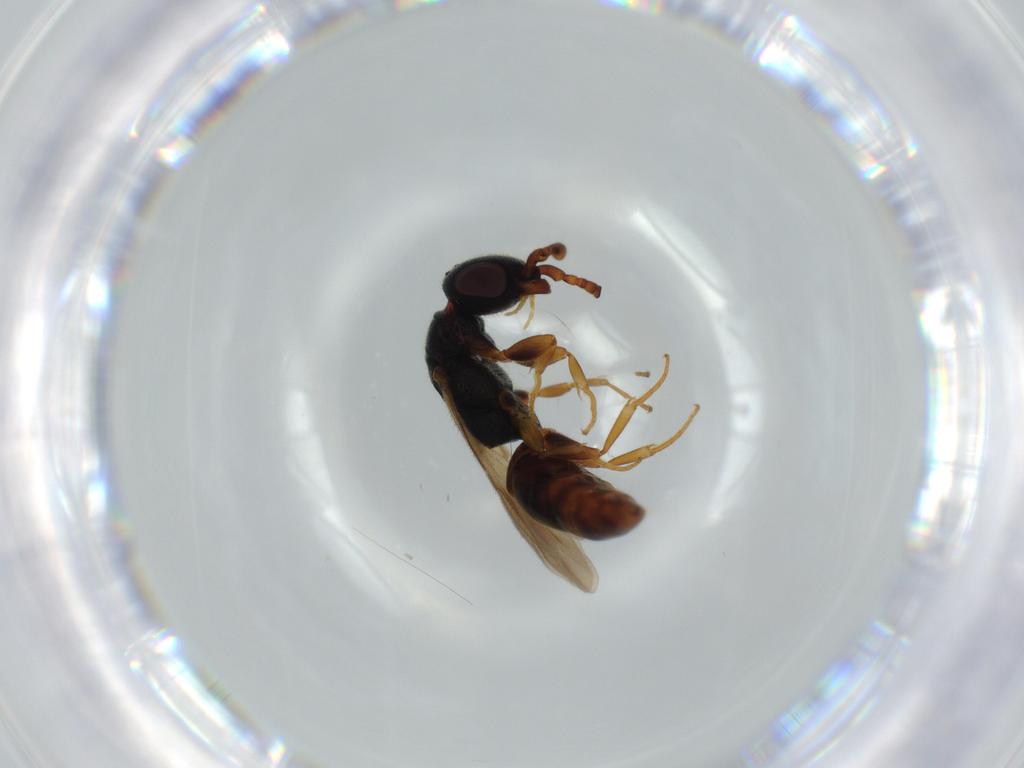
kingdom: Animalia
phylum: Arthropoda
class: Insecta
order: Hymenoptera
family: Bethylidae
